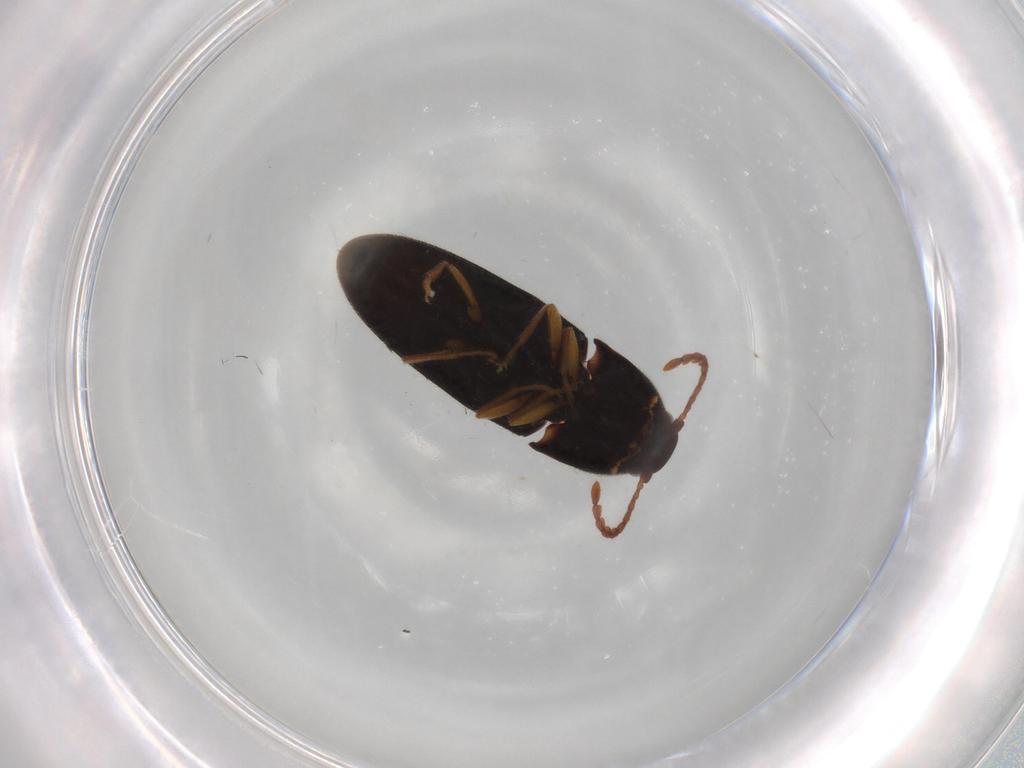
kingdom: Animalia
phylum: Arthropoda
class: Insecta
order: Coleoptera
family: Elateridae
